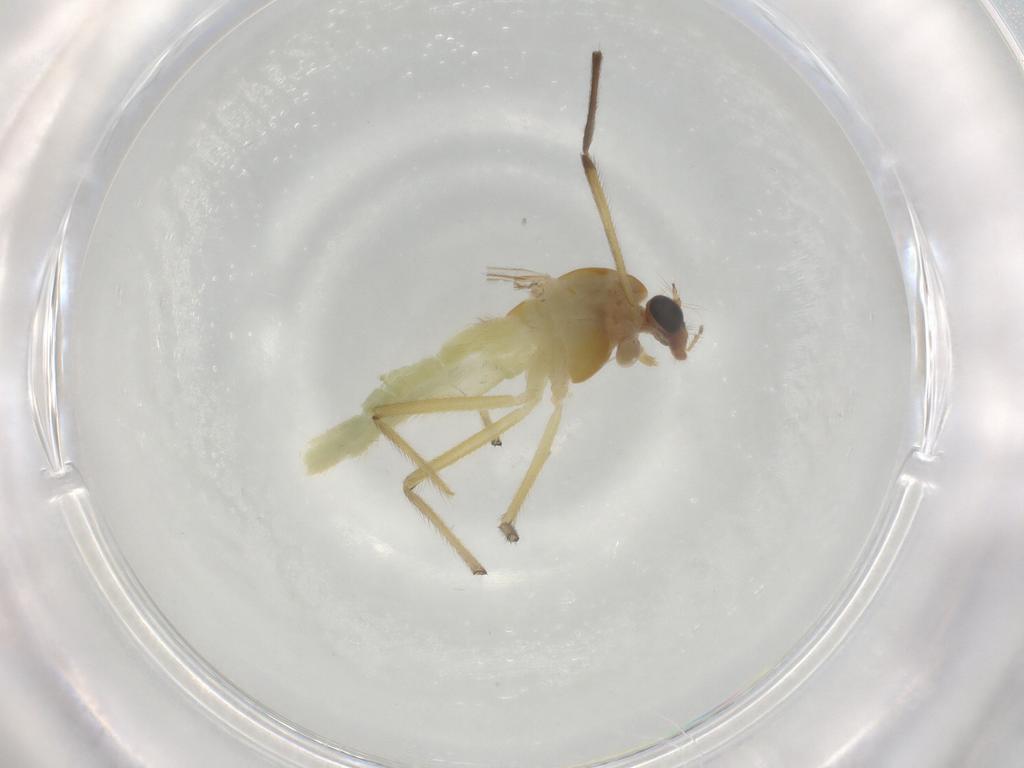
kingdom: Animalia
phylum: Arthropoda
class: Insecta
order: Diptera
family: Chironomidae
